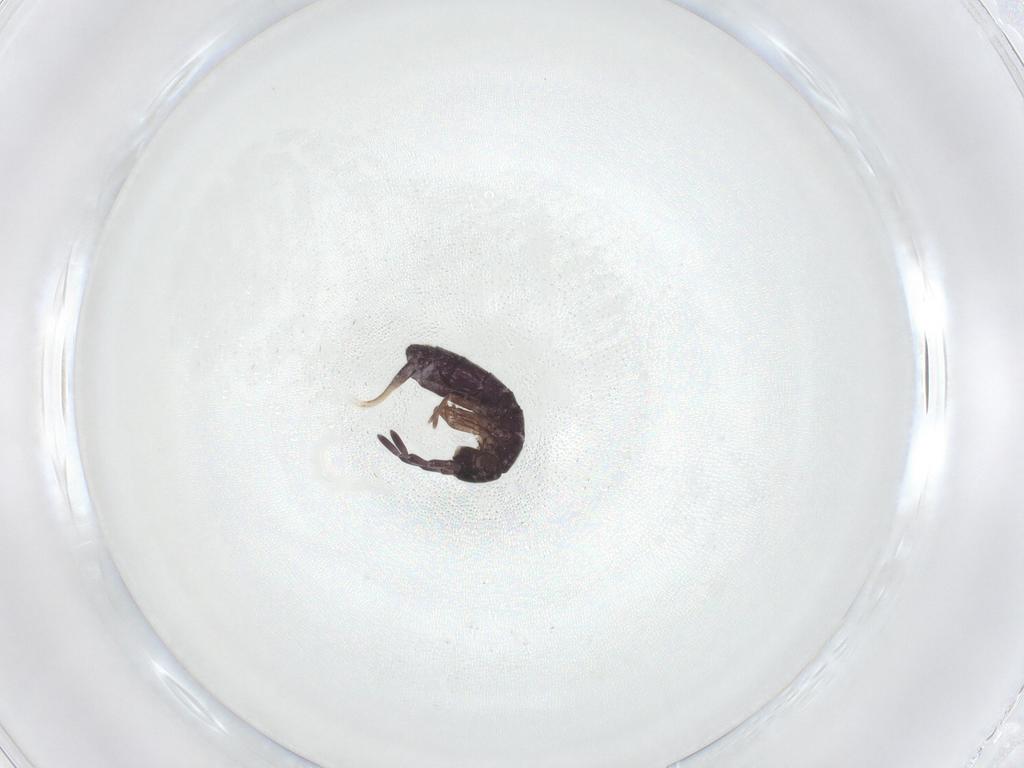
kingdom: Animalia
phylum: Arthropoda
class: Collembola
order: Entomobryomorpha
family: Isotomidae
